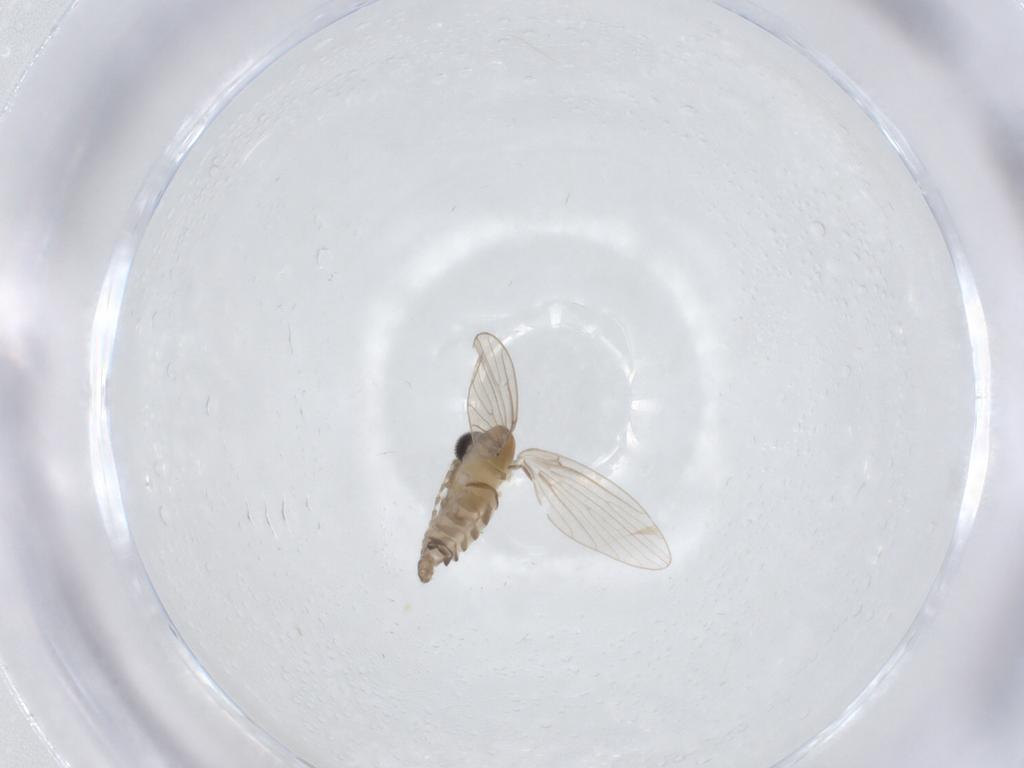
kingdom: Animalia
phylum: Arthropoda
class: Insecta
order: Diptera
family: Psychodidae
